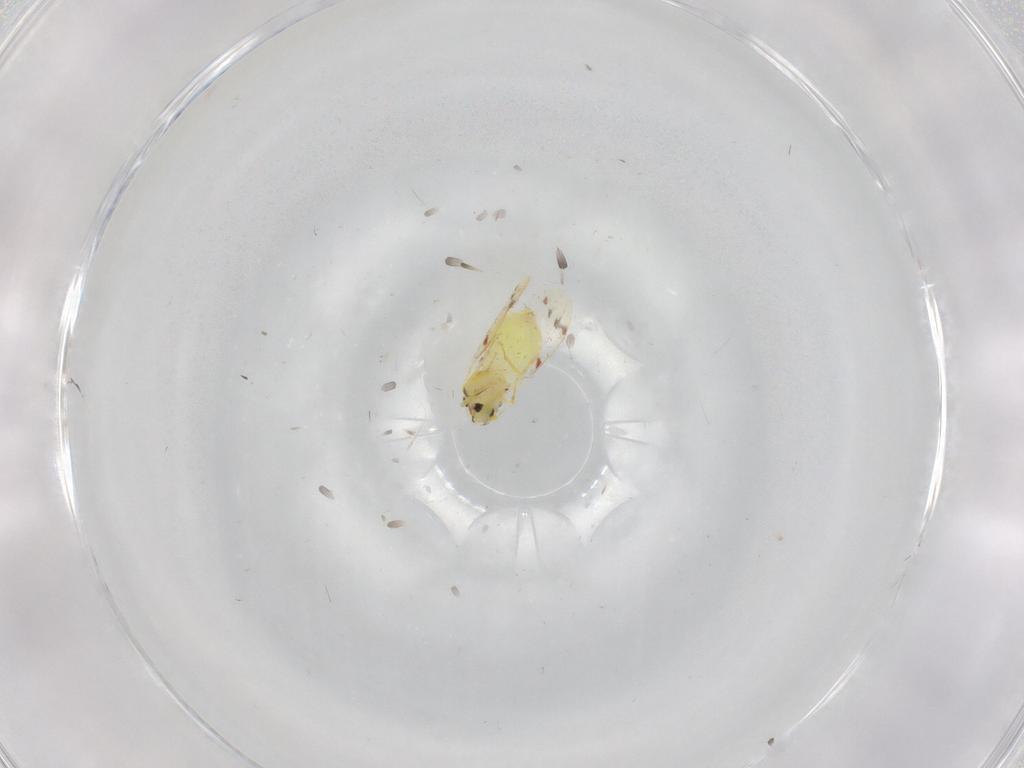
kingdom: Animalia
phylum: Arthropoda
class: Insecta
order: Hemiptera
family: Aleyrodidae
